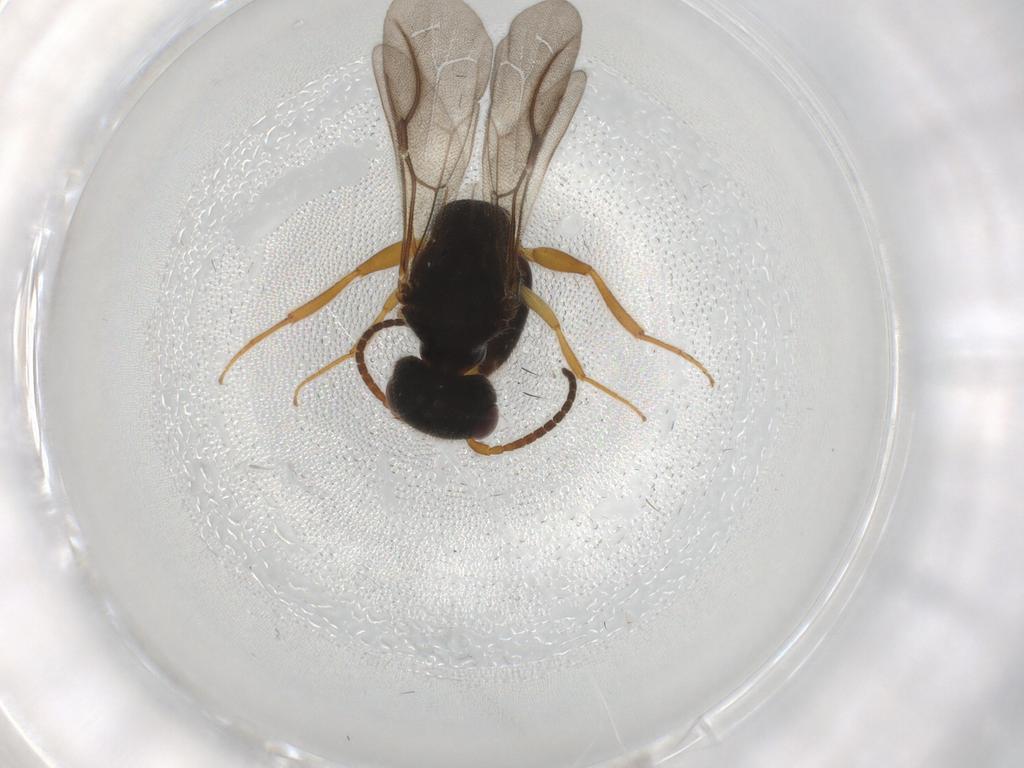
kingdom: Animalia
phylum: Arthropoda
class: Insecta
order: Hymenoptera
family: Bethylidae
